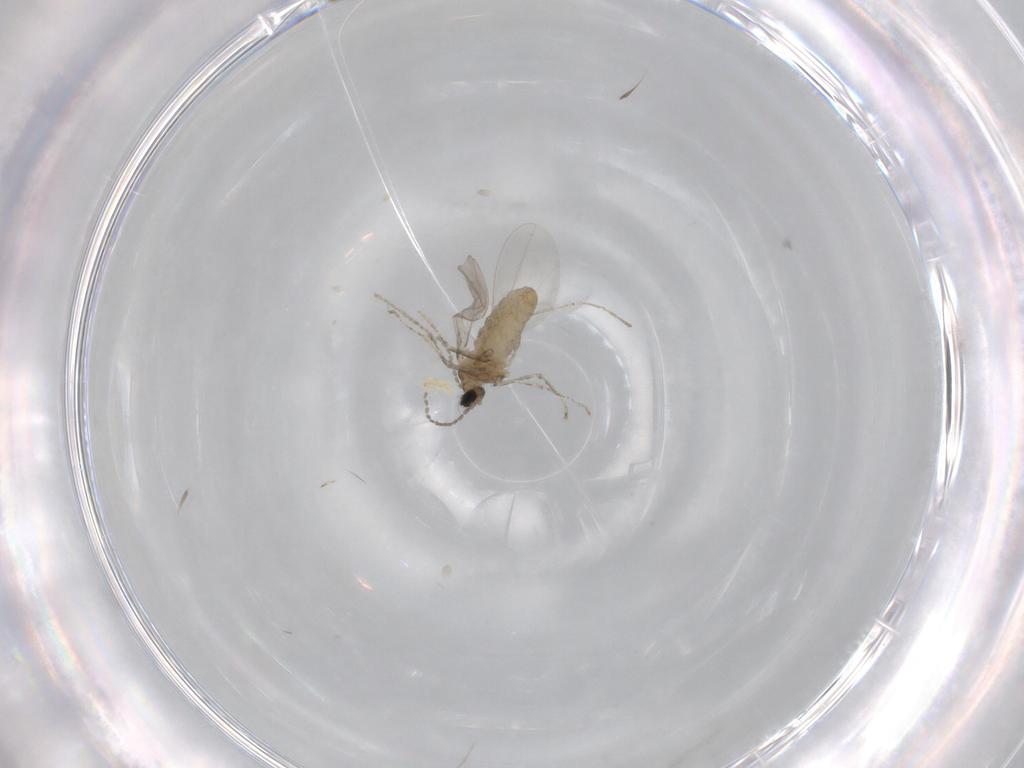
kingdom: Animalia
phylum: Arthropoda
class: Insecta
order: Diptera
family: Cecidomyiidae
